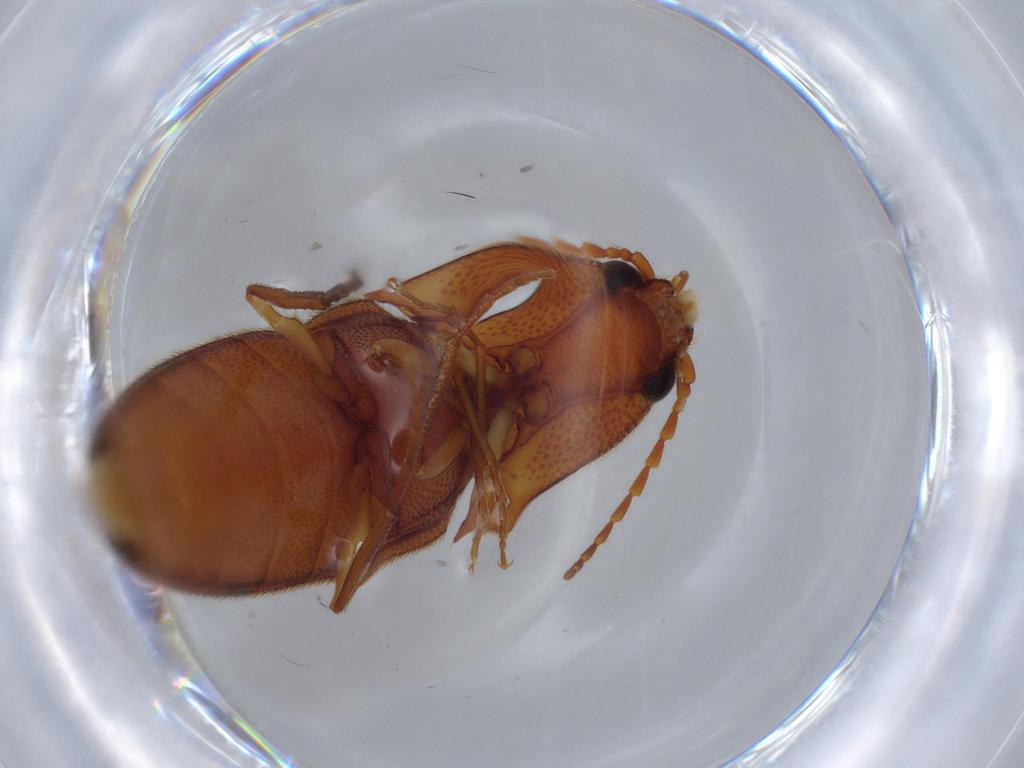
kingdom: Animalia
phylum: Arthropoda
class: Insecta
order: Coleoptera
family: Elateridae
